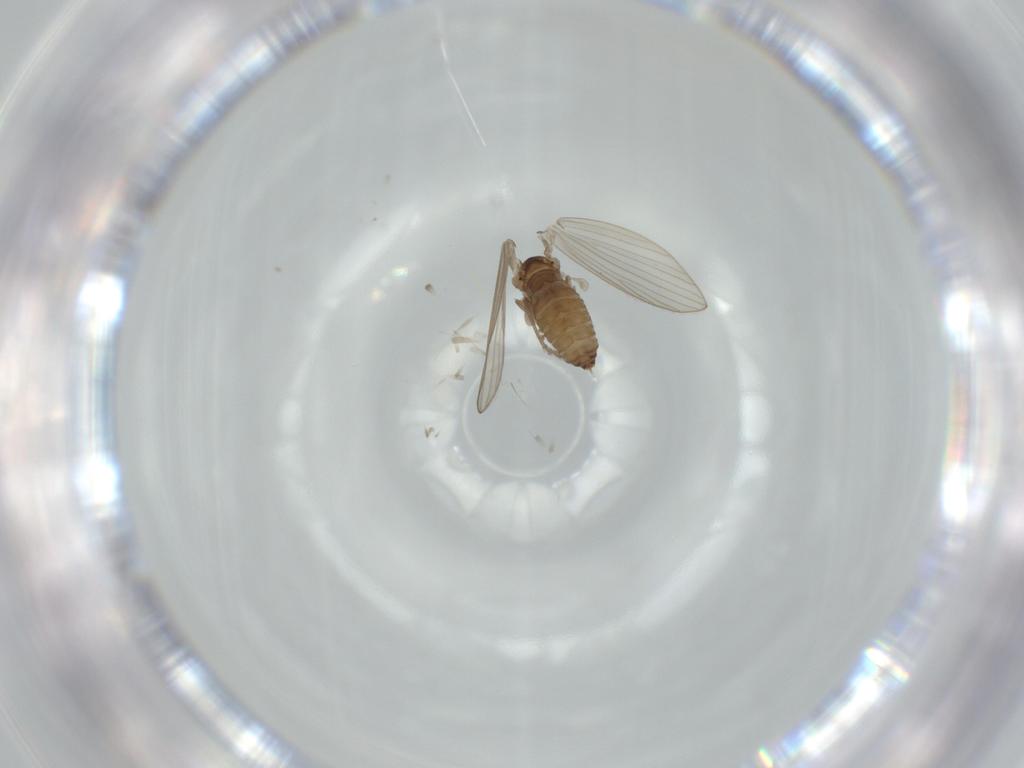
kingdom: Animalia
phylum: Arthropoda
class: Insecta
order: Diptera
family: Psychodidae
